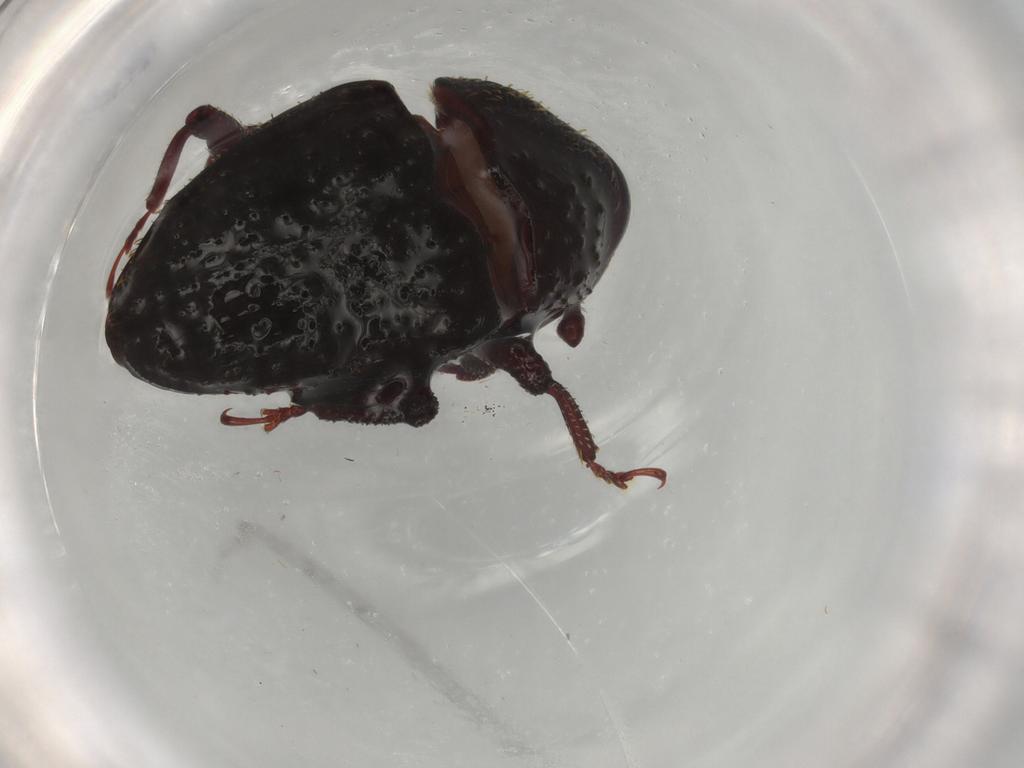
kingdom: Animalia
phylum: Arthropoda
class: Insecta
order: Coleoptera
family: Curculionidae
